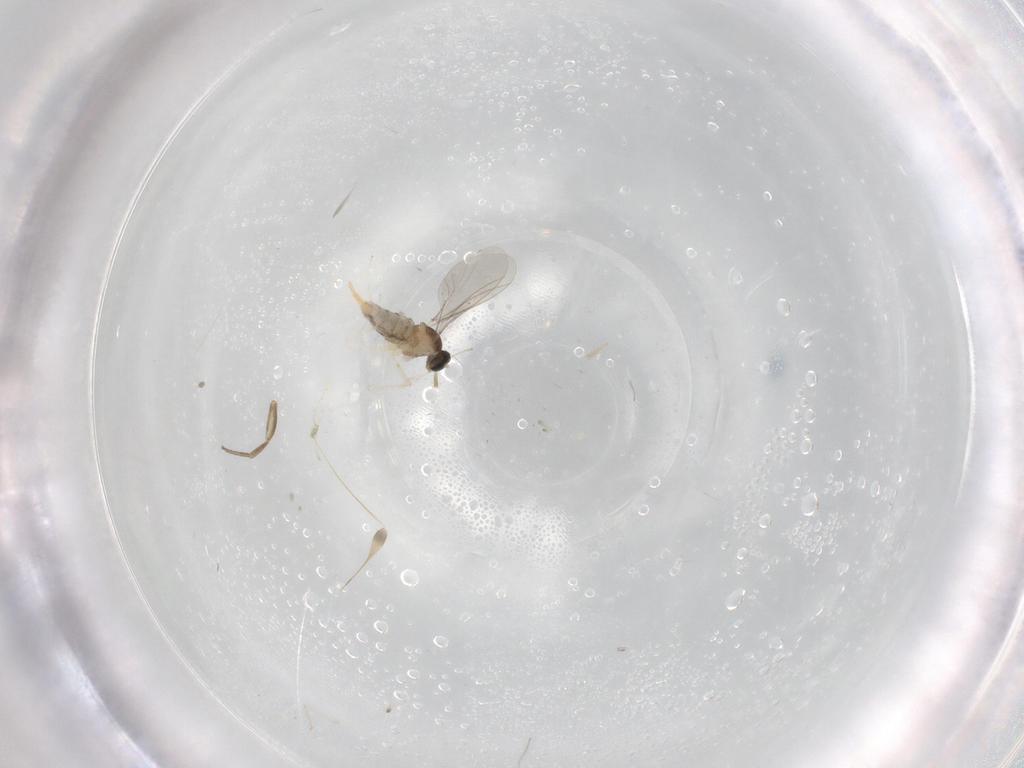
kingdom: Animalia
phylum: Arthropoda
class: Insecta
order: Diptera
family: Cecidomyiidae
